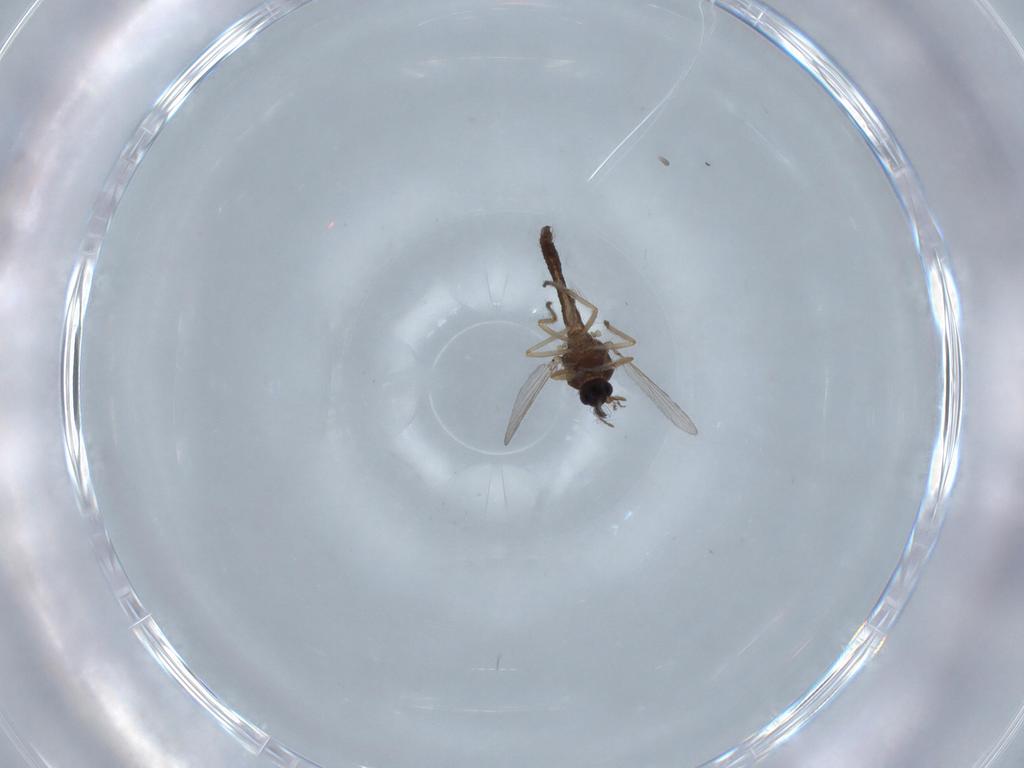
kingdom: Animalia
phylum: Arthropoda
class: Insecta
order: Diptera
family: Ceratopogonidae
